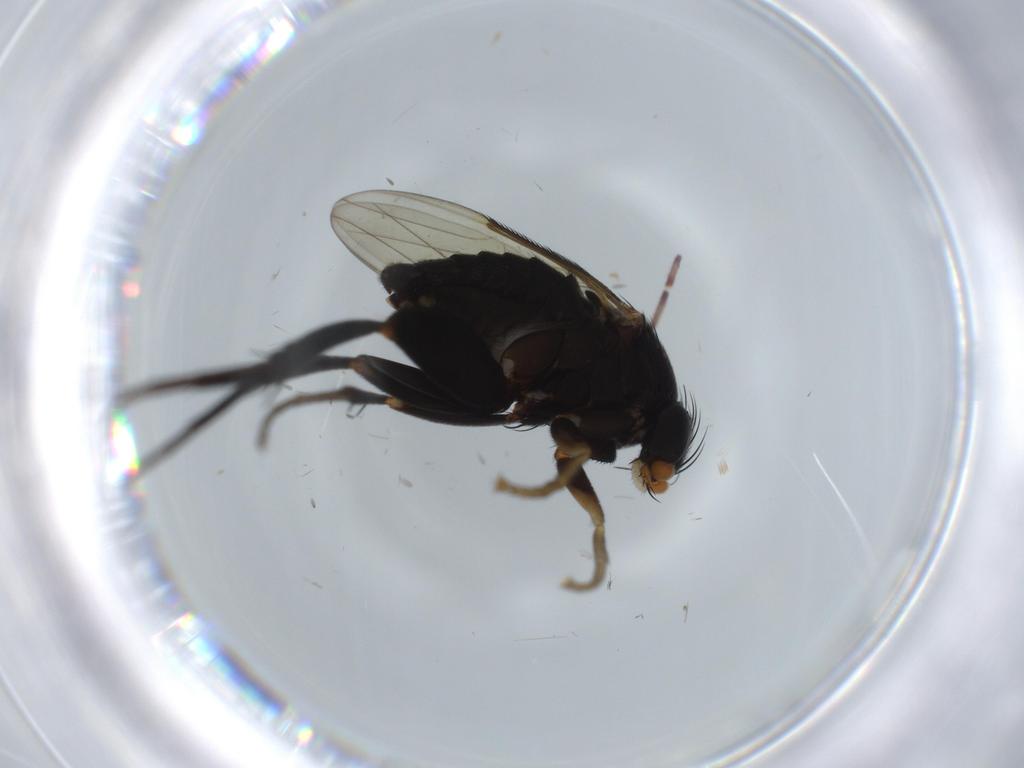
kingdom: Animalia
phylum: Arthropoda
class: Insecta
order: Diptera
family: Phoridae
